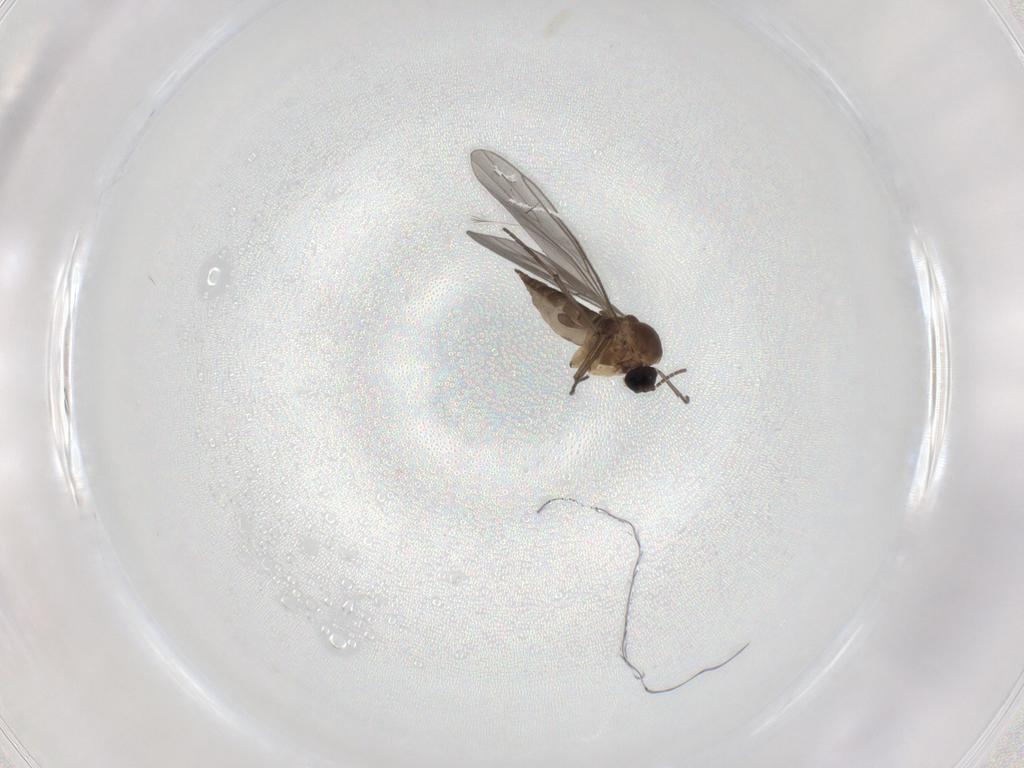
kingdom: Animalia
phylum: Arthropoda
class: Insecta
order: Diptera
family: Sciaridae
